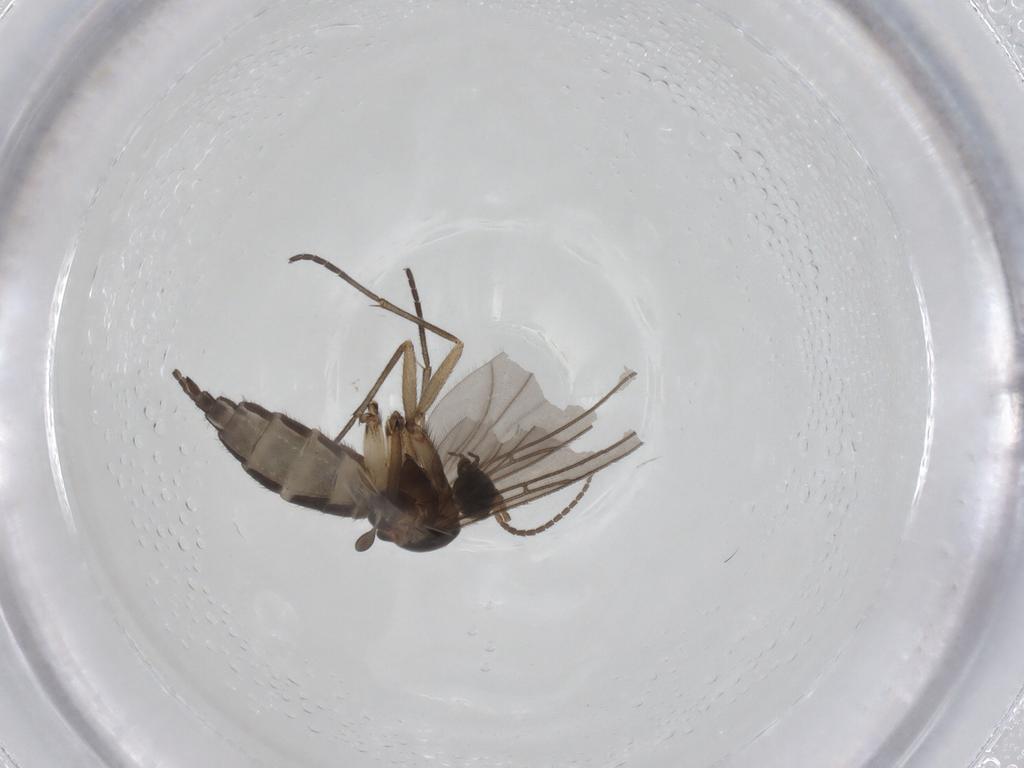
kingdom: Animalia
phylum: Arthropoda
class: Insecta
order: Diptera
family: Sciaridae
